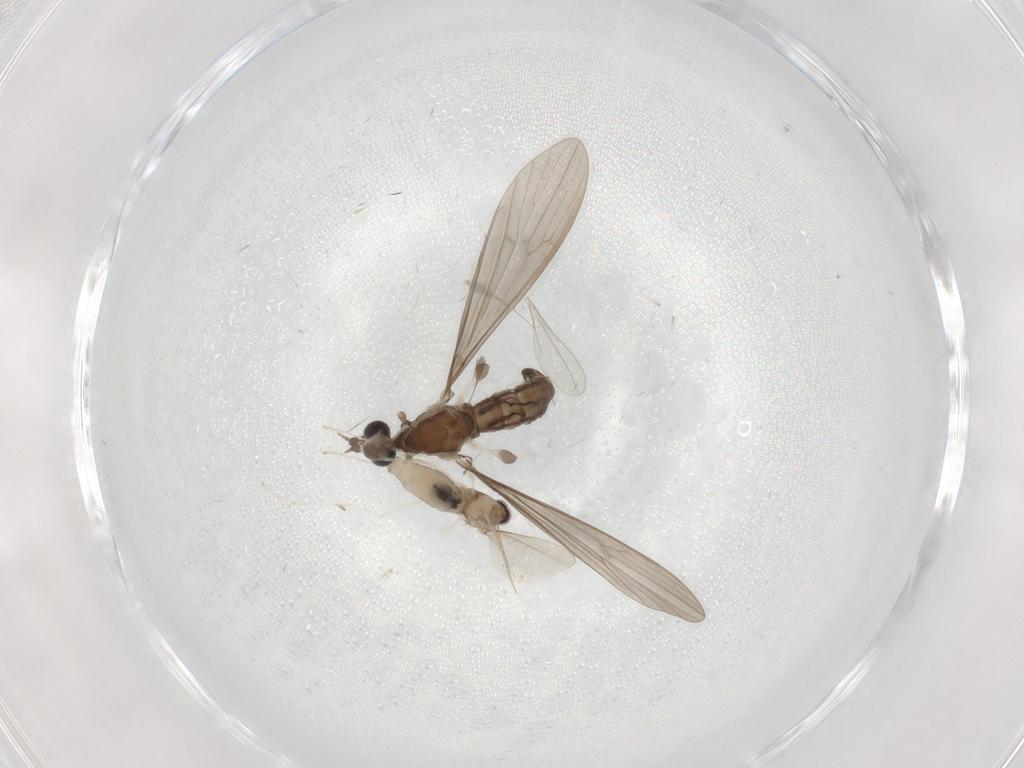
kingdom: Animalia
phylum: Arthropoda
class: Insecta
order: Diptera
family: Limoniidae
